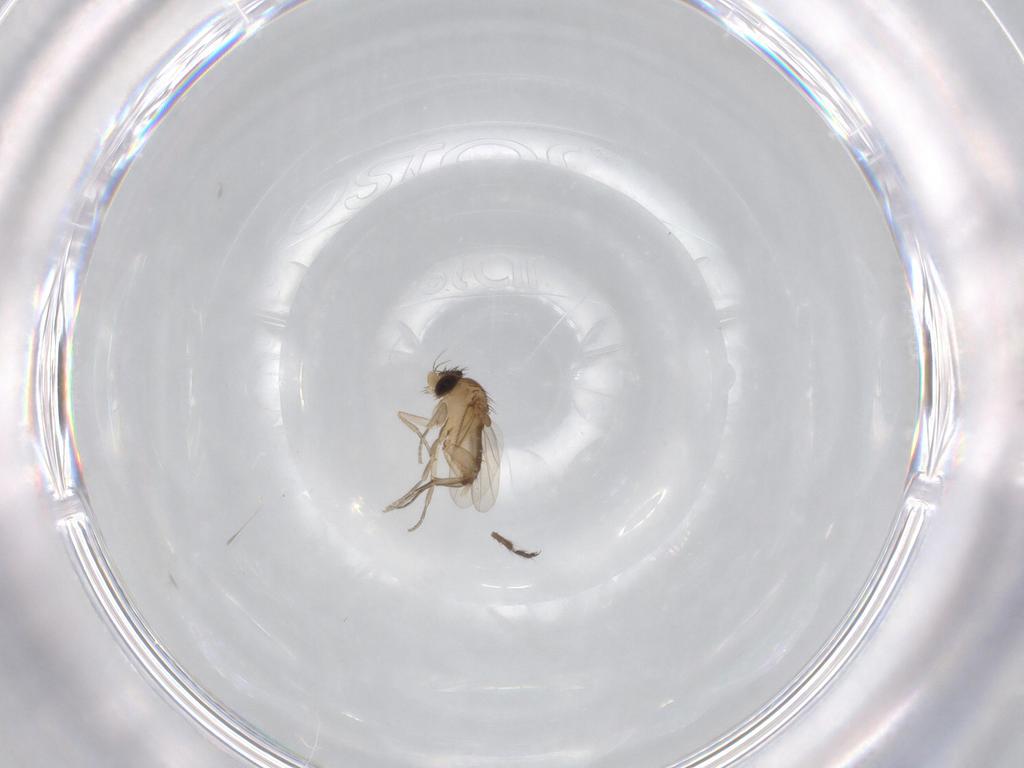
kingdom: Animalia
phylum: Arthropoda
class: Insecta
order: Diptera
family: Limoniidae
